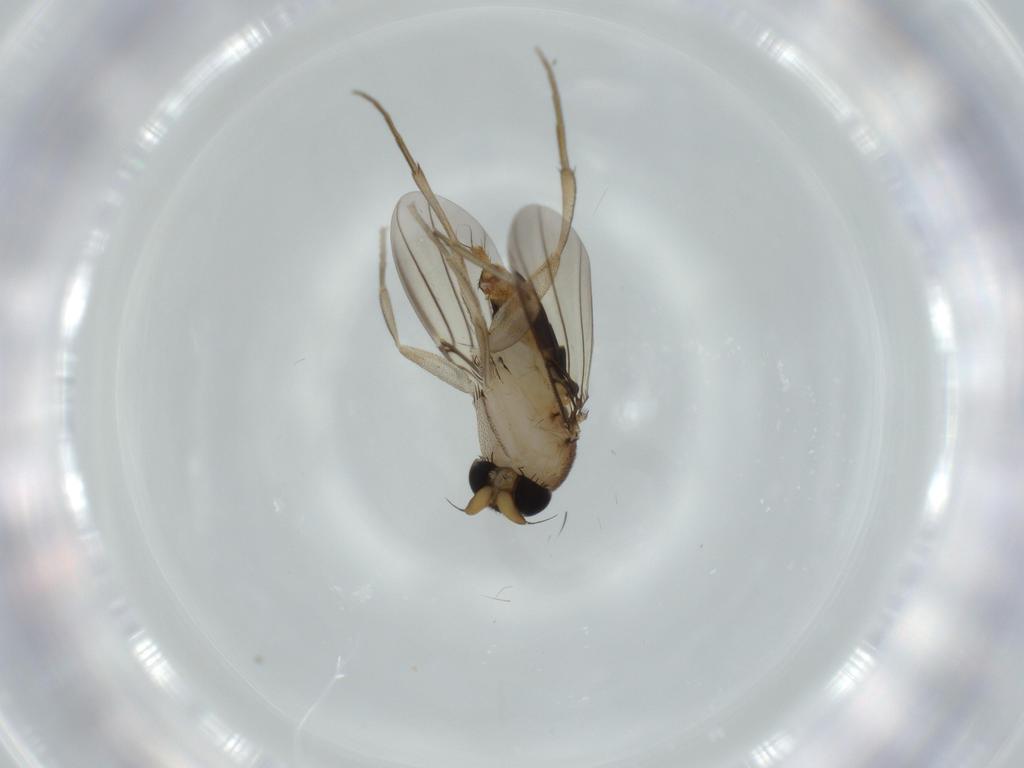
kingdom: Animalia
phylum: Arthropoda
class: Insecta
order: Diptera
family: Phoridae
